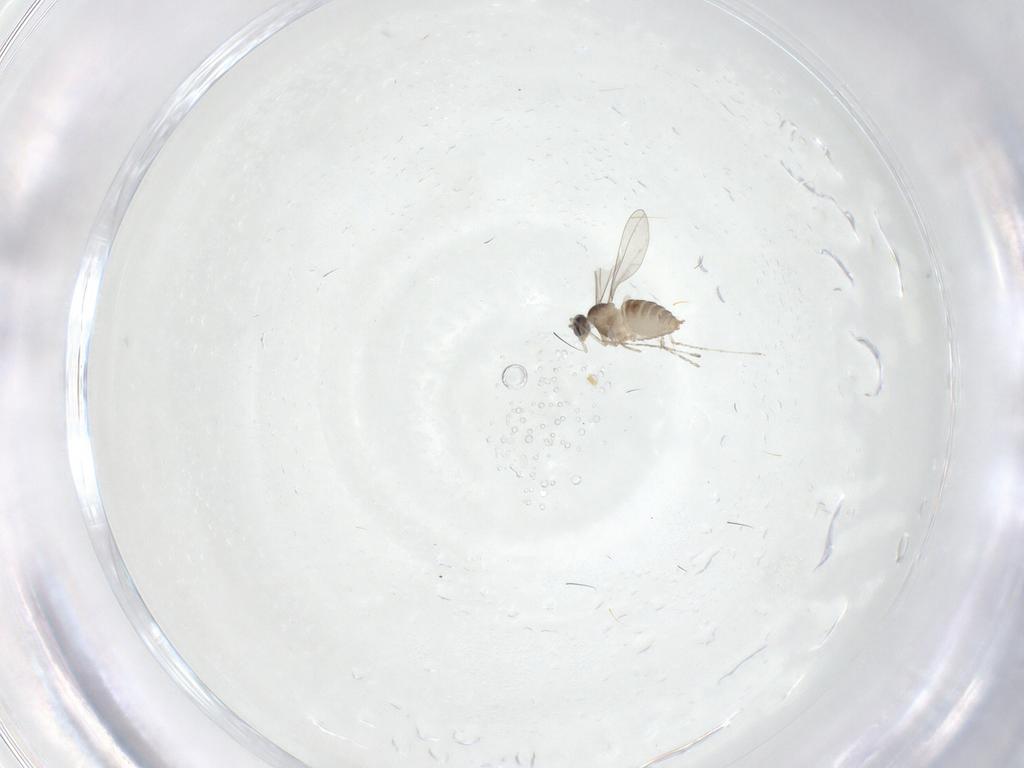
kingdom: Animalia
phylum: Arthropoda
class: Insecta
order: Diptera
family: Cecidomyiidae
